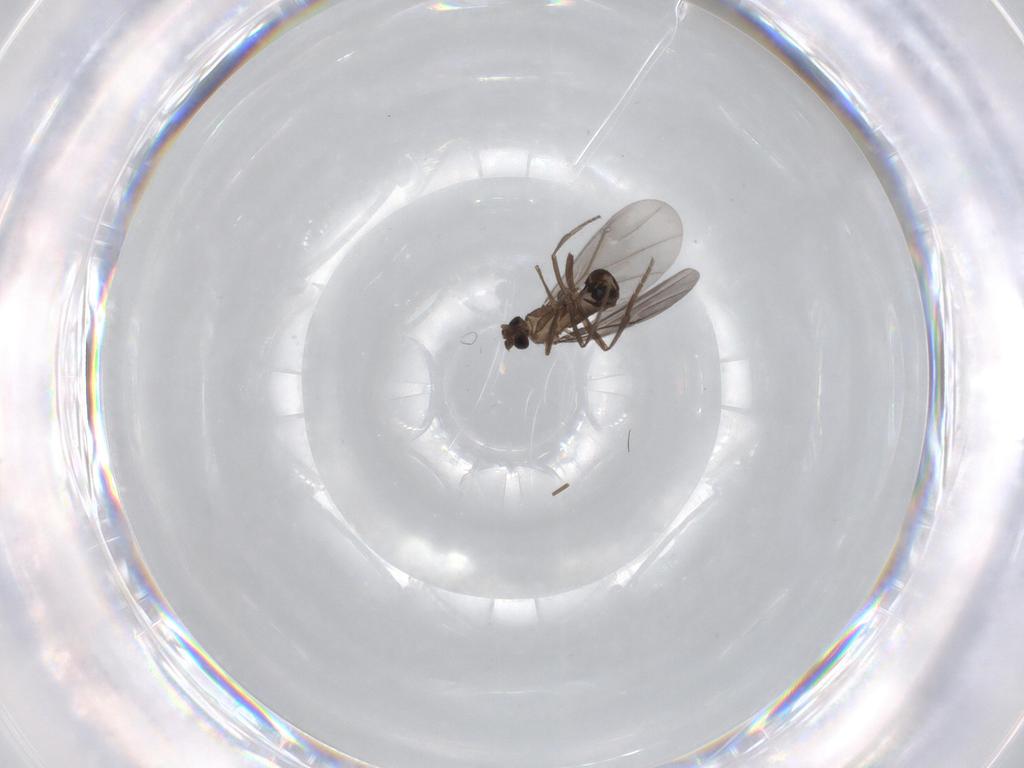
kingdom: Animalia
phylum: Arthropoda
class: Insecta
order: Diptera
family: Phoridae
